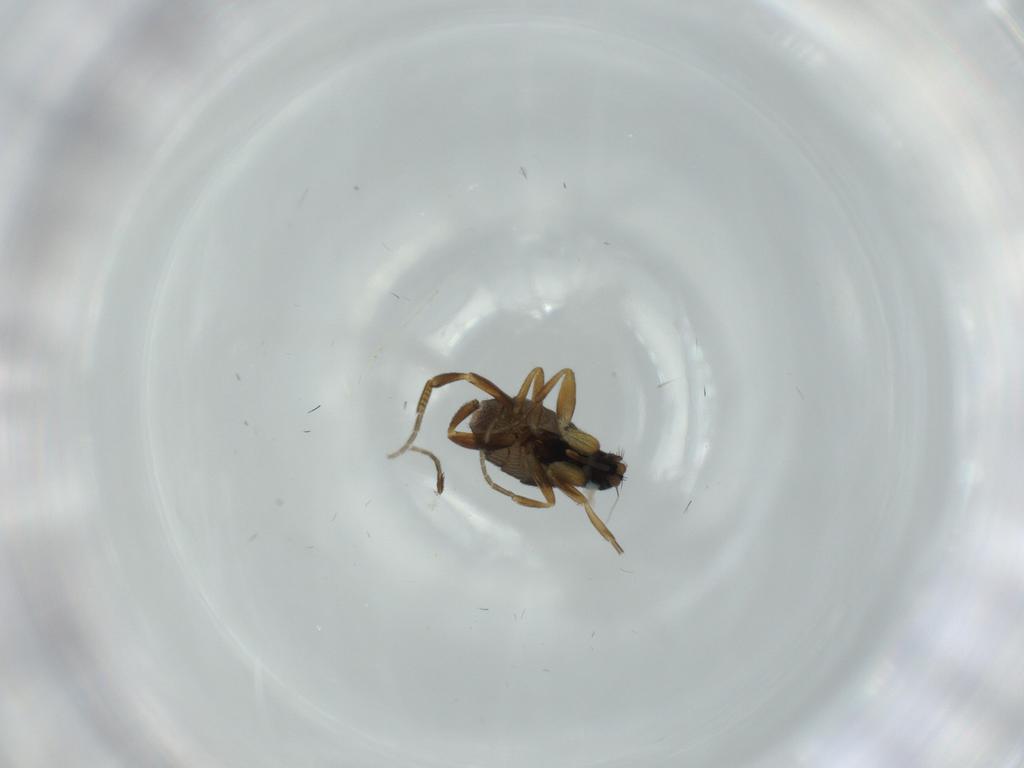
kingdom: Animalia
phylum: Arthropoda
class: Insecta
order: Diptera
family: Phoridae
